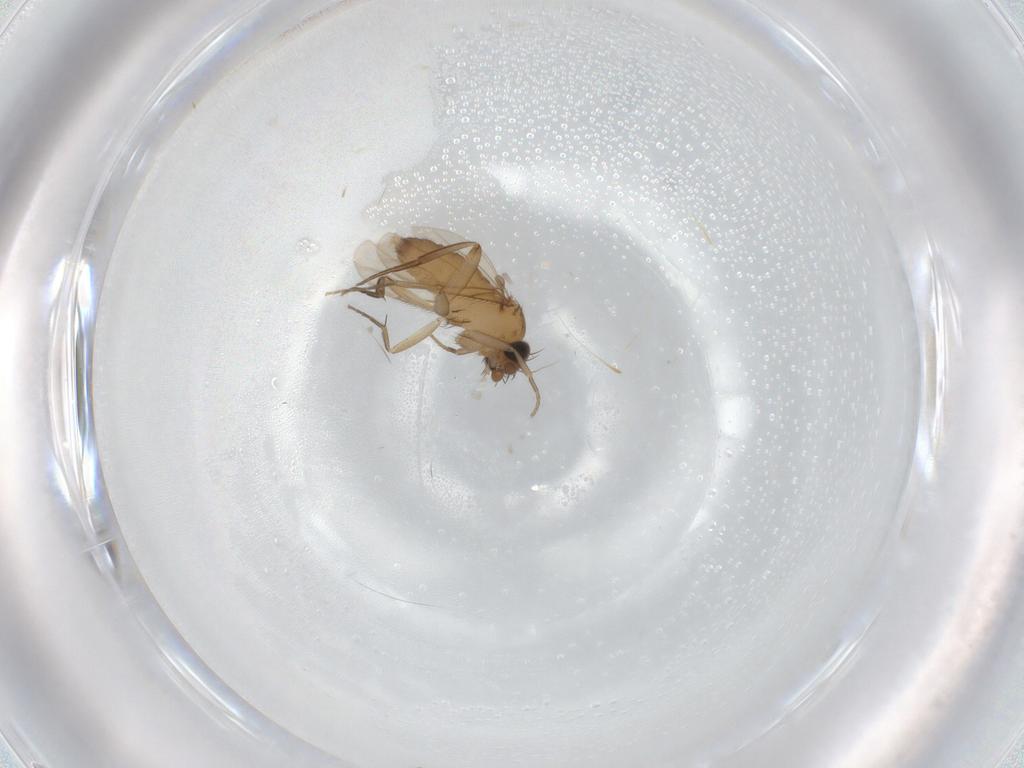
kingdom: Animalia
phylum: Arthropoda
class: Insecta
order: Diptera
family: Phoridae
